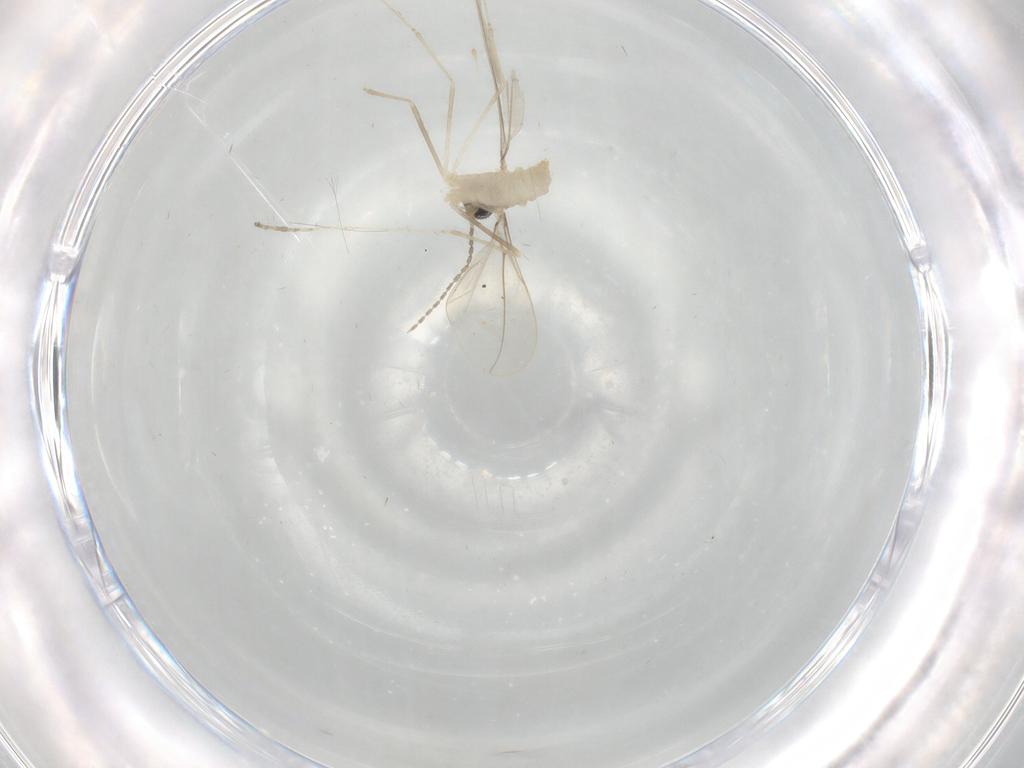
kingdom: Animalia
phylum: Arthropoda
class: Insecta
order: Diptera
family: Cecidomyiidae
